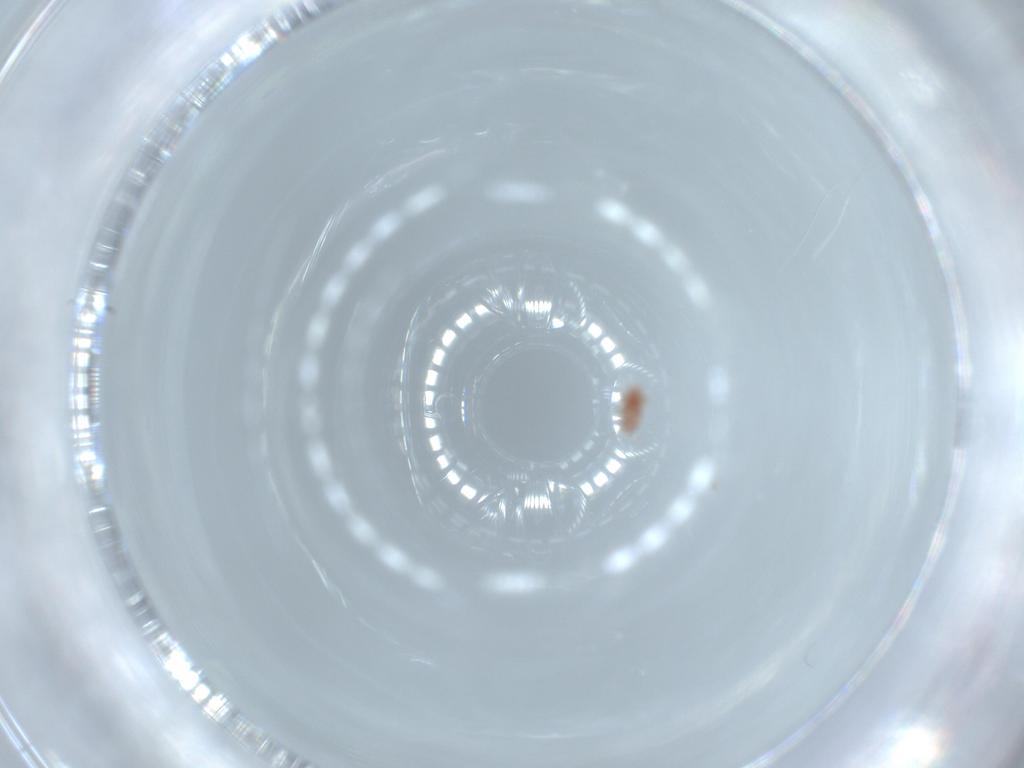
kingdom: Animalia
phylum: Arthropoda
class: Insecta
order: Diptera
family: Sciaridae
